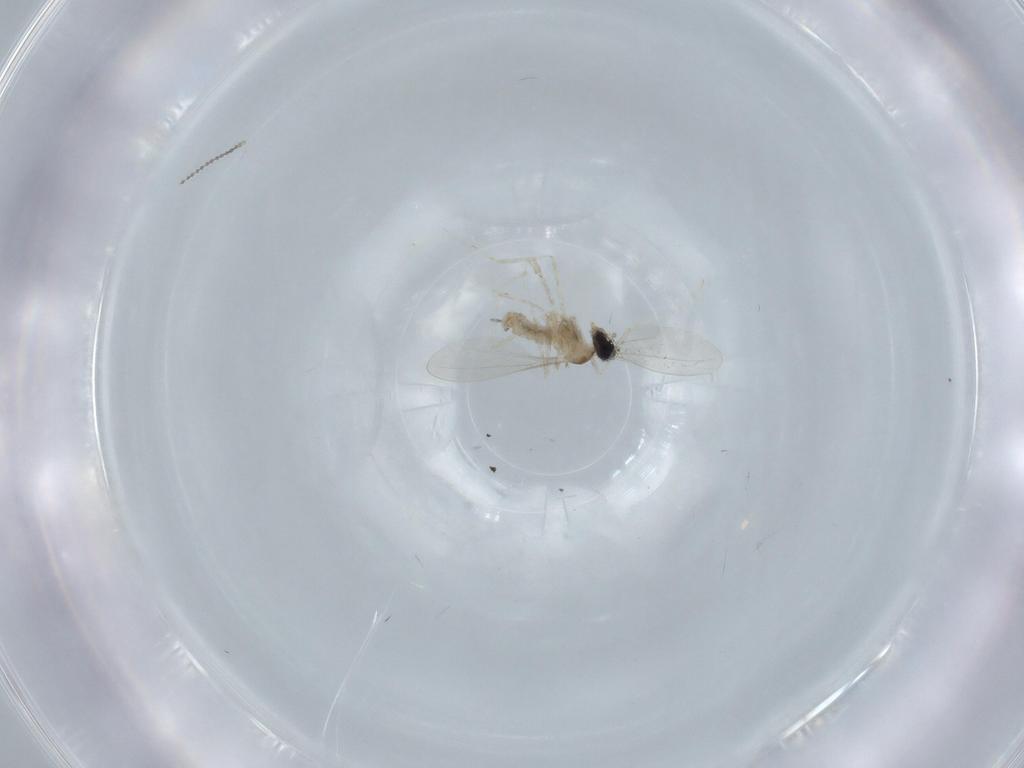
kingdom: Animalia
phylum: Arthropoda
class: Insecta
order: Diptera
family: Cecidomyiidae
